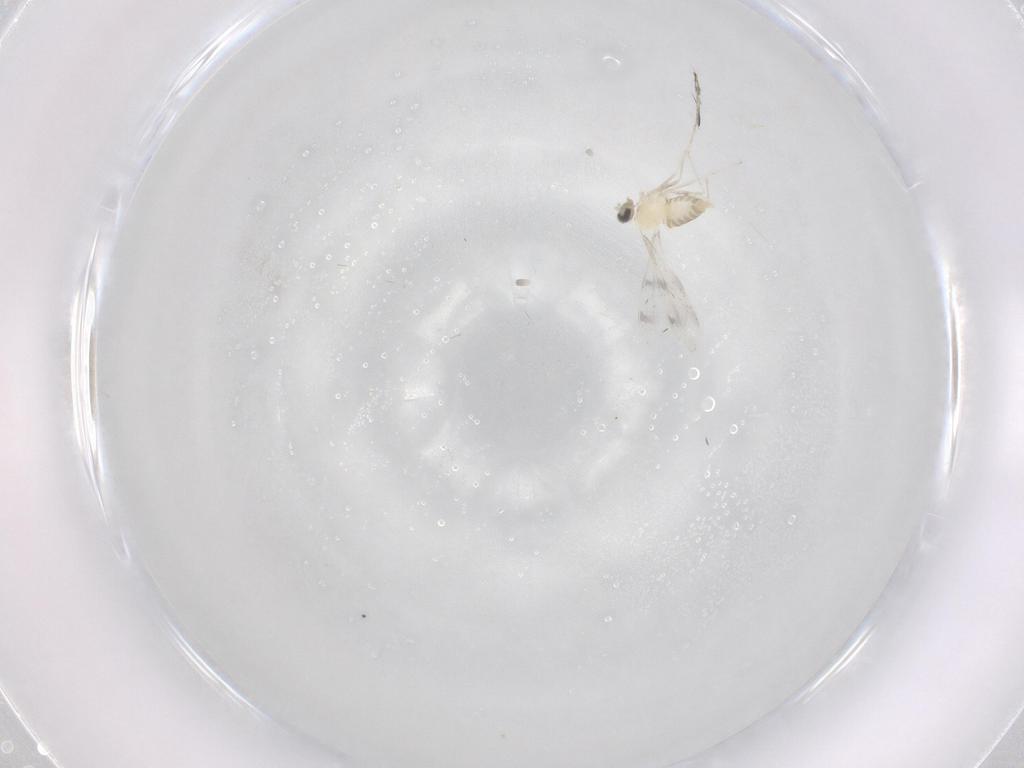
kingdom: Animalia
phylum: Arthropoda
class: Insecta
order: Diptera
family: Cecidomyiidae
